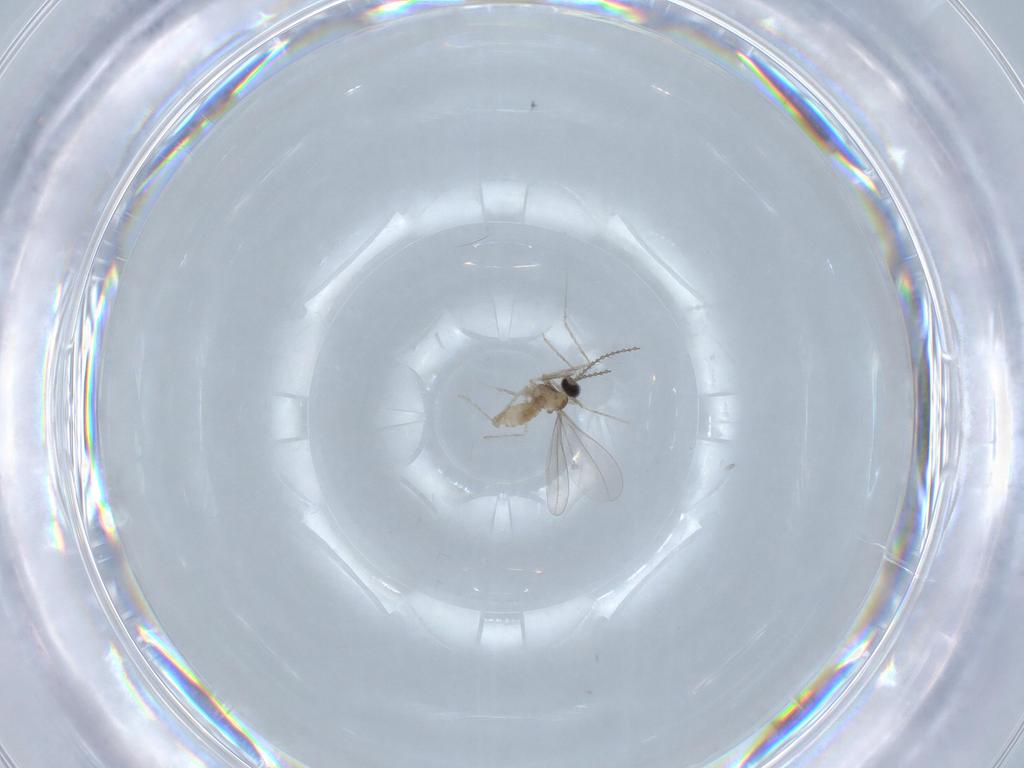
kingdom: Animalia
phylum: Arthropoda
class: Insecta
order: Diptera
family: Cecidomyiidae
